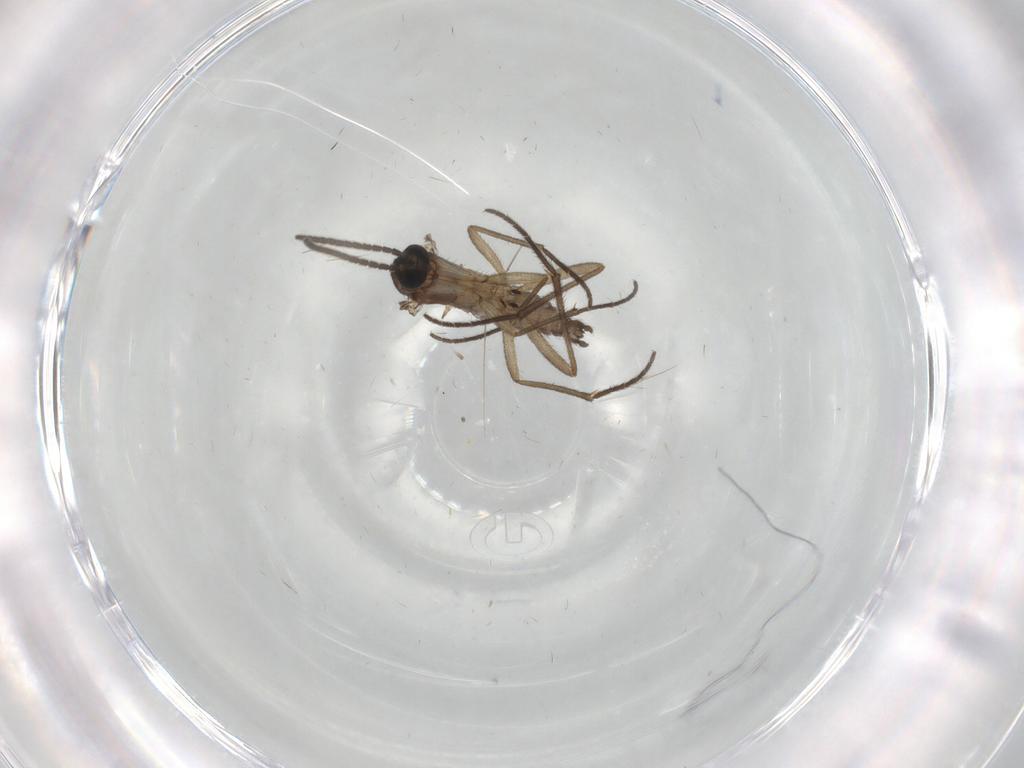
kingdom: Animalia
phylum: Arthropoda
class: Insecta
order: Diptera
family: Sciaridae
